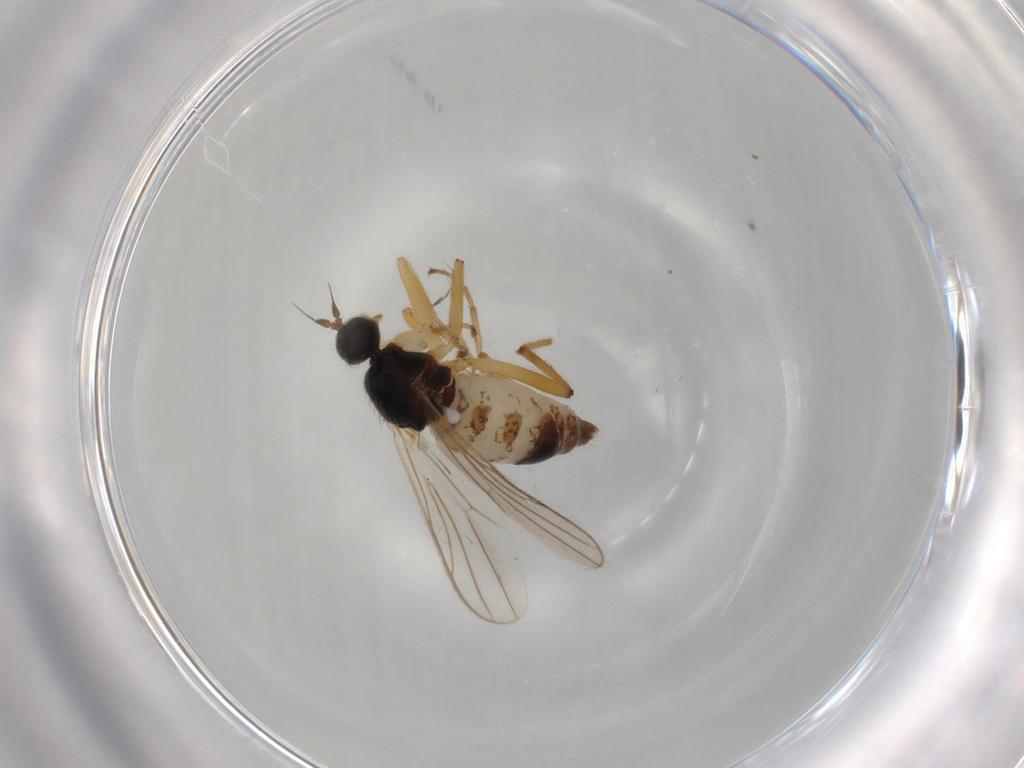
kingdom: Animalia
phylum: Arthropoda
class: Insecta
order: Diptera
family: Hybotidae
